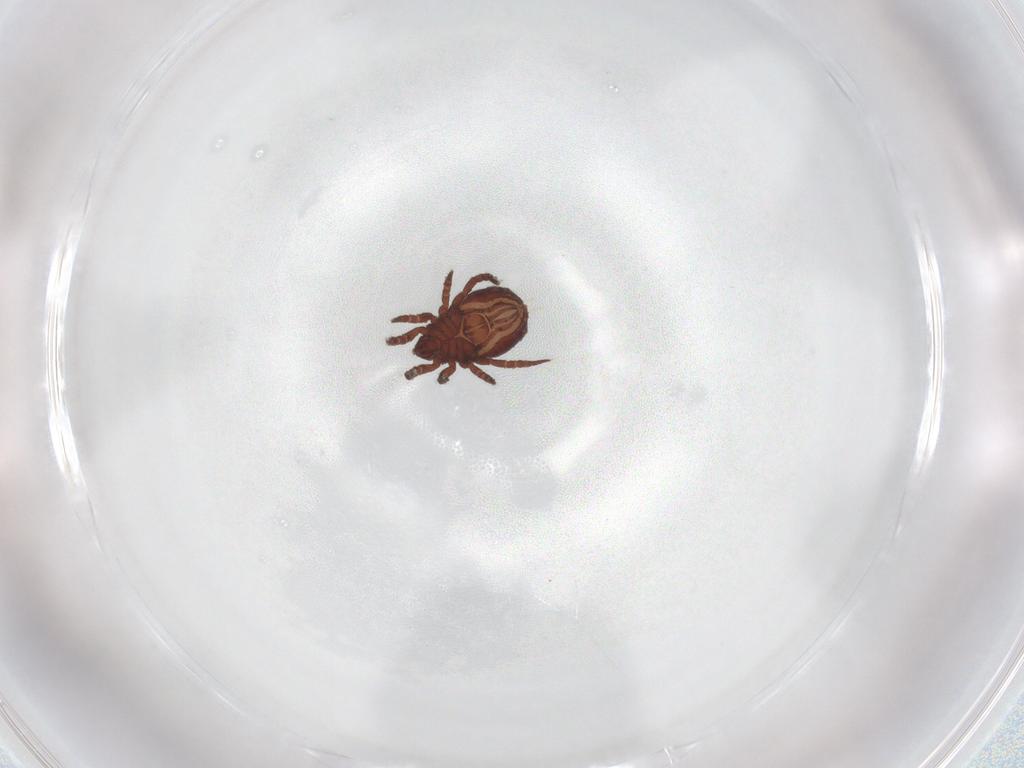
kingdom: Animalia
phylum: Arthropoda
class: Arachnida
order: Sarcoptiformes
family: Nothridae
